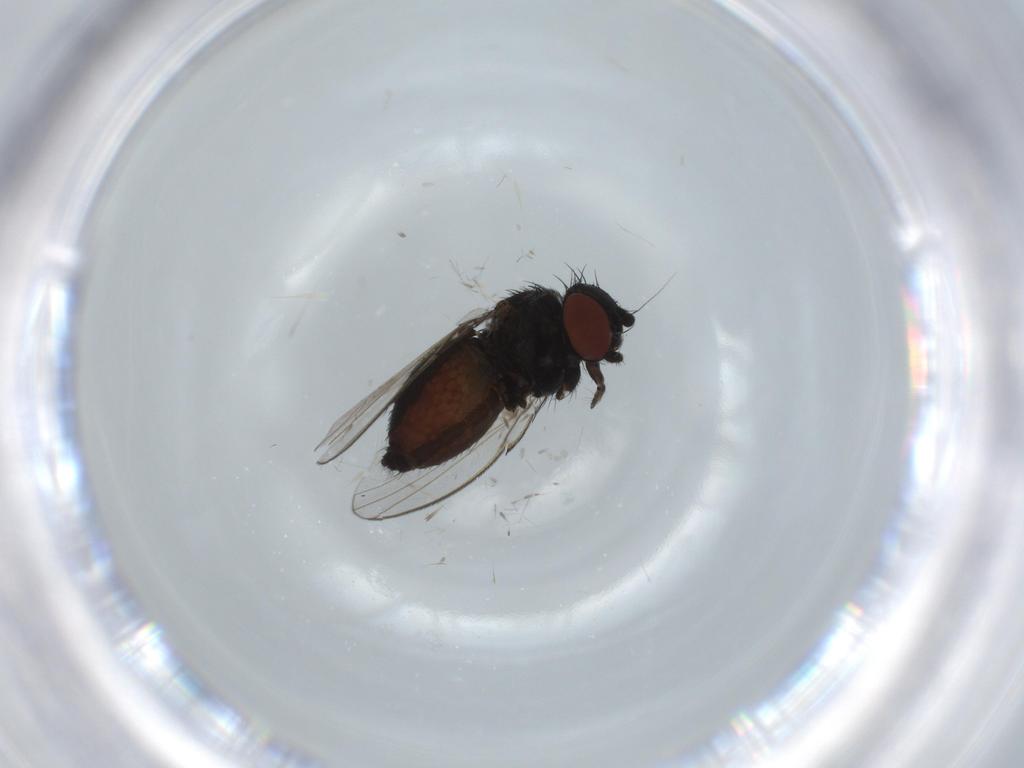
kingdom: Animalia
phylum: Arthropoda
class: Insecta
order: Diptera
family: Milichiidae
